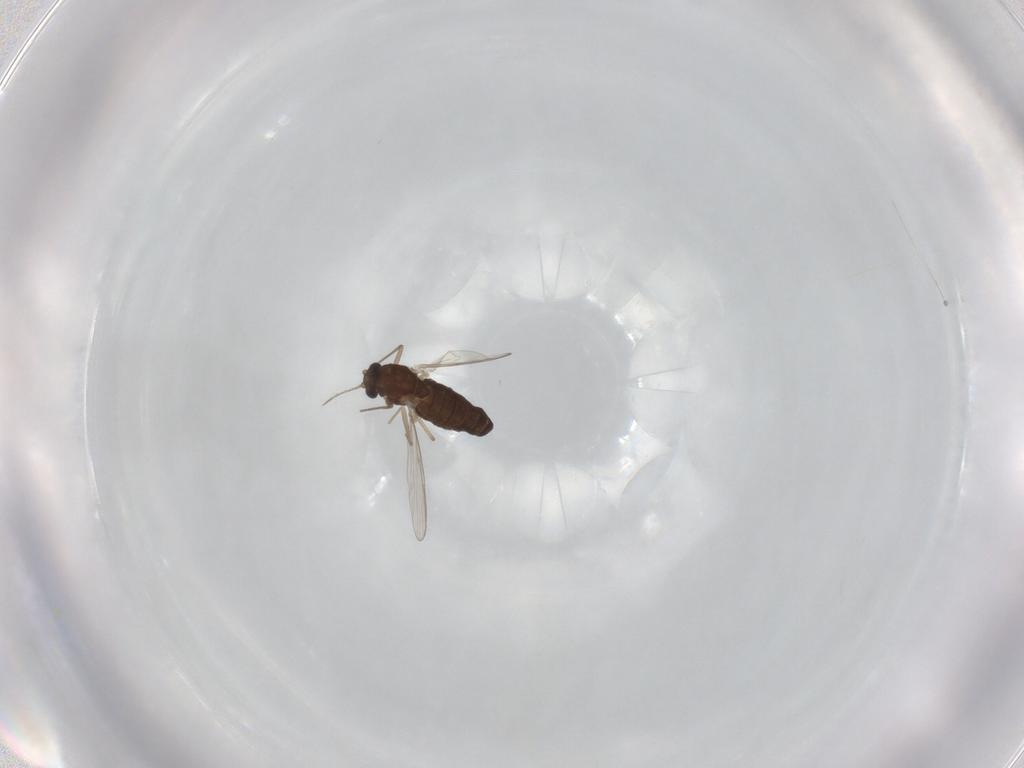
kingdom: Animalia
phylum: Arthropoda
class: Insecta
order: Diptera
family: Chironomidae
